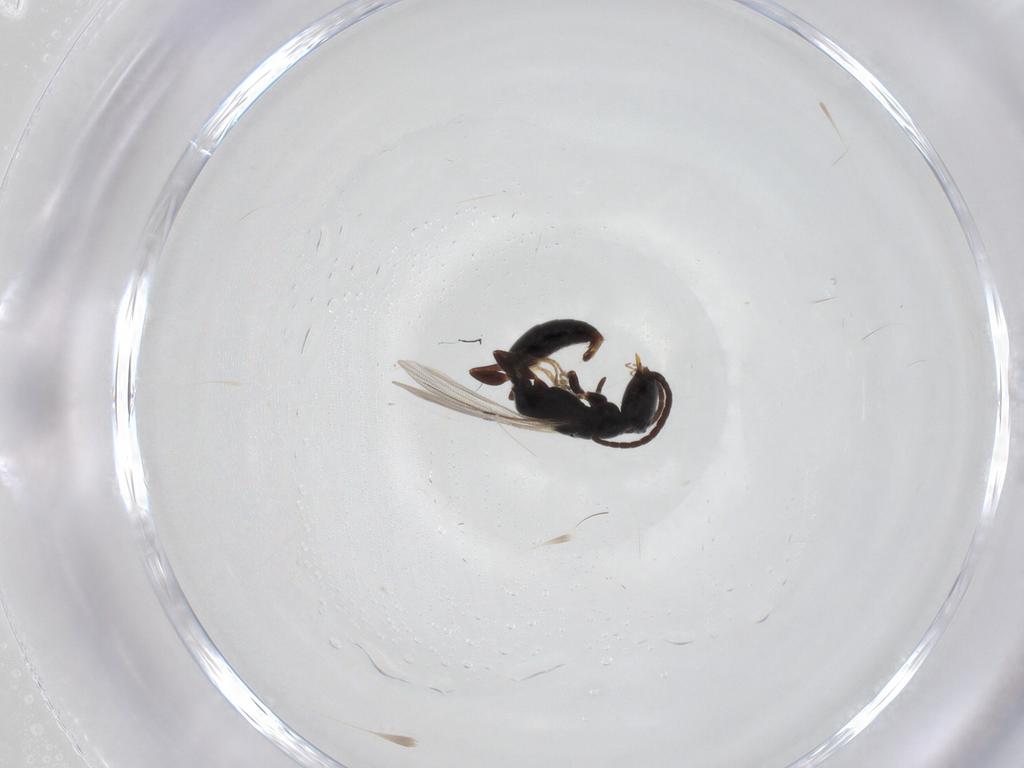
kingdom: Animalia
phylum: Arthropoda
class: Insecta
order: Hymenoptera
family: Bethylidae
